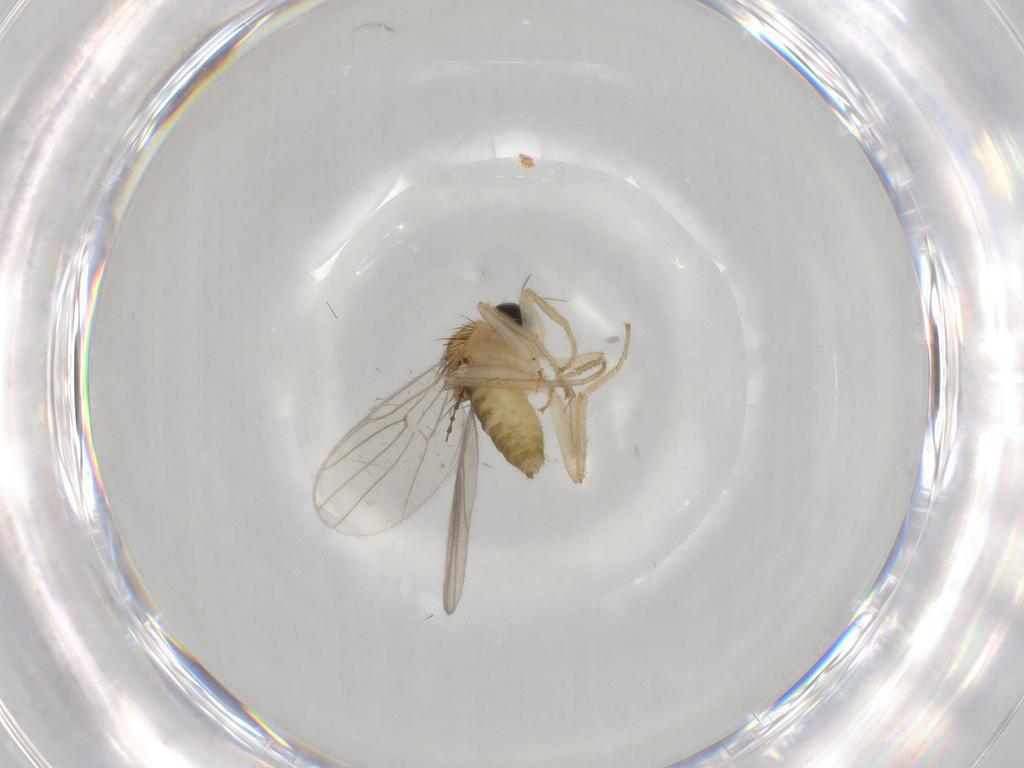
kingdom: Animalia
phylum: Arthropoda
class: Insecta
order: Diptera
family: Hybotidae
